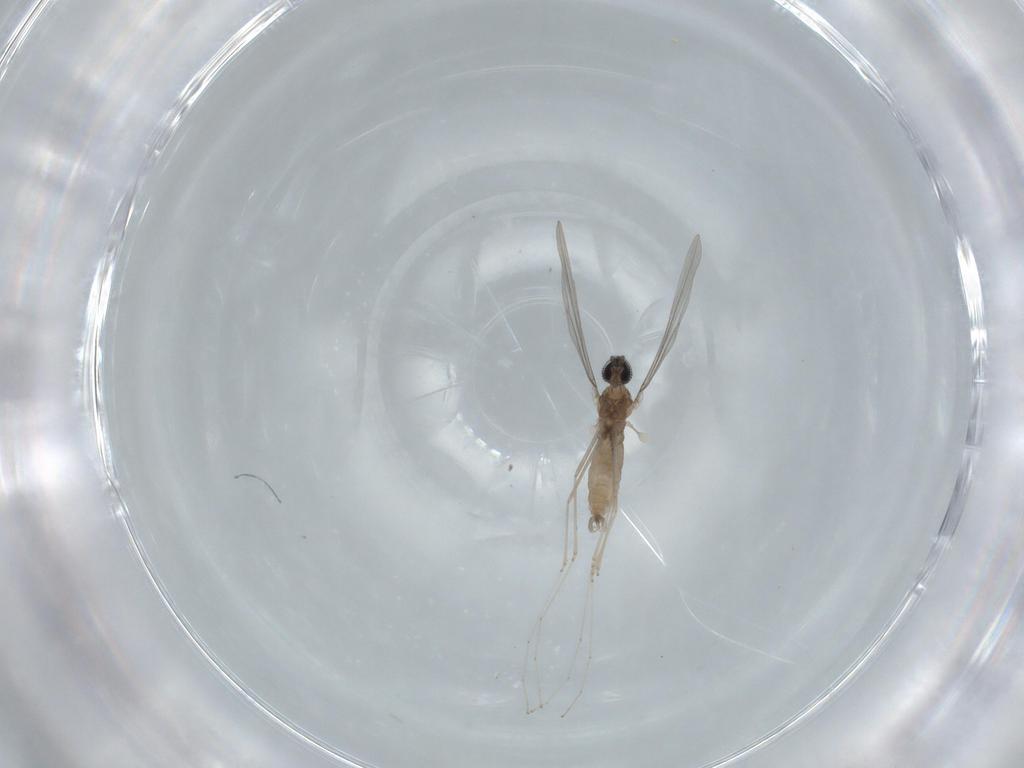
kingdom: Animalia
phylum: Arthropoda
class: Insecta
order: Diptera
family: Cecidomyiidae
